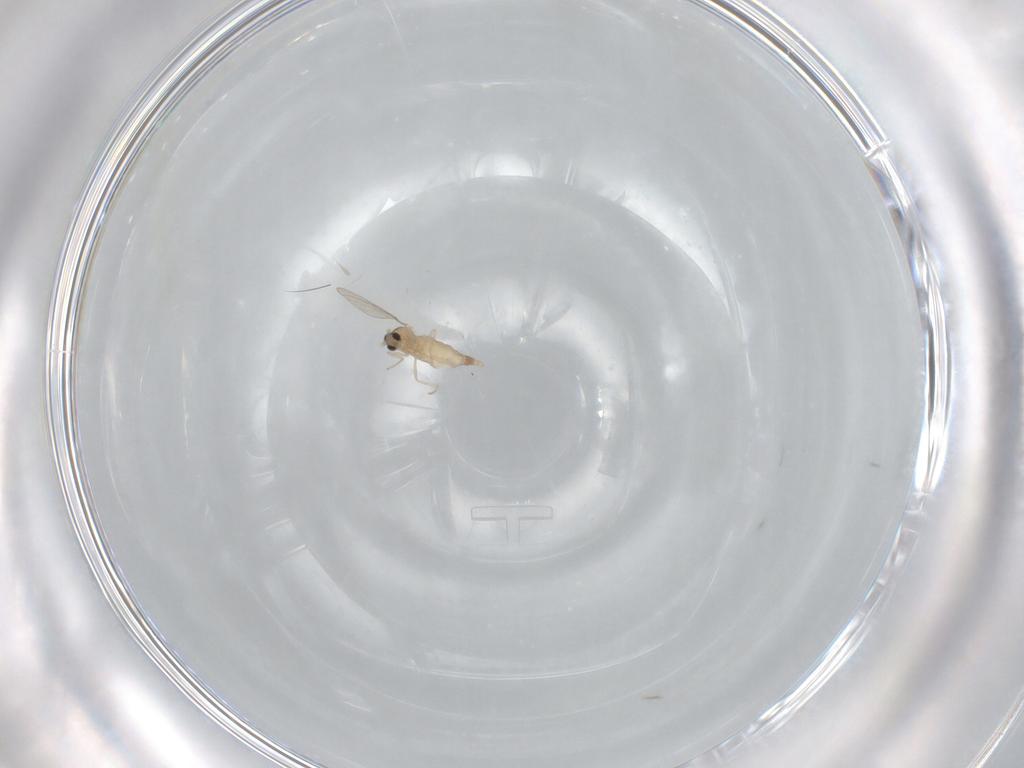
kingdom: Animalia
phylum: Arthropoda
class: Insecta
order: Diptera
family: Cecidomyiidae
